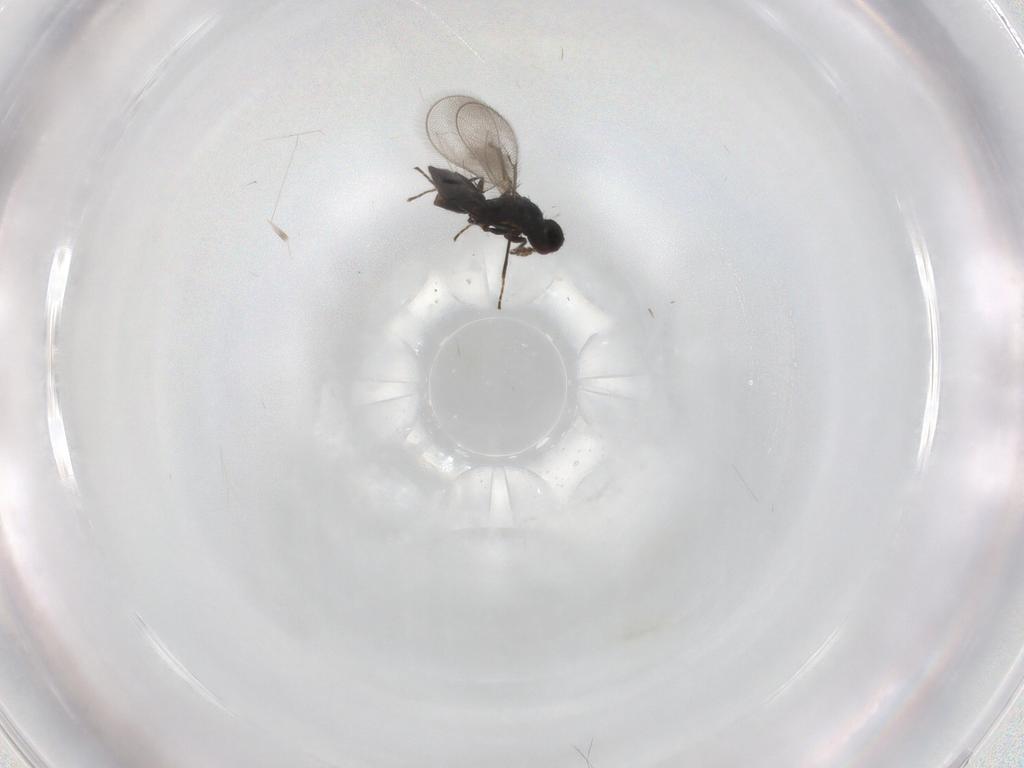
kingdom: Animalia
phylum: Arthropoda
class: Insecta
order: Hymenoptera
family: Eulophidae
